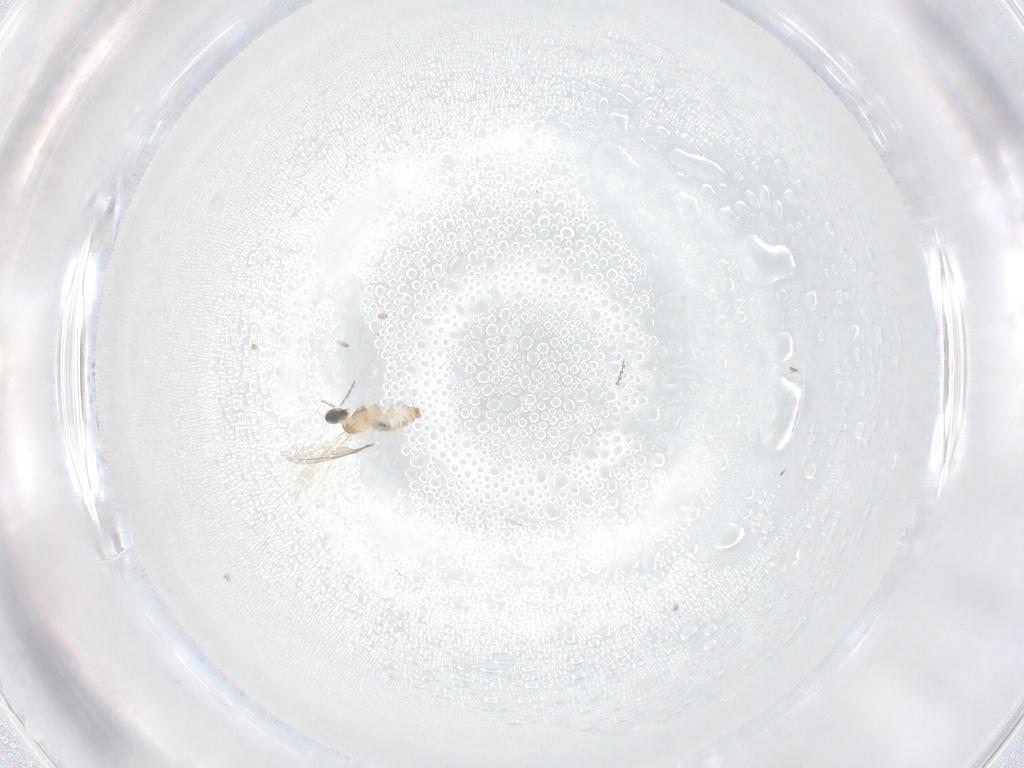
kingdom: Animalia
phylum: Arthropoda
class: Insecta
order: Diptera
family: Cecidomyiidae
